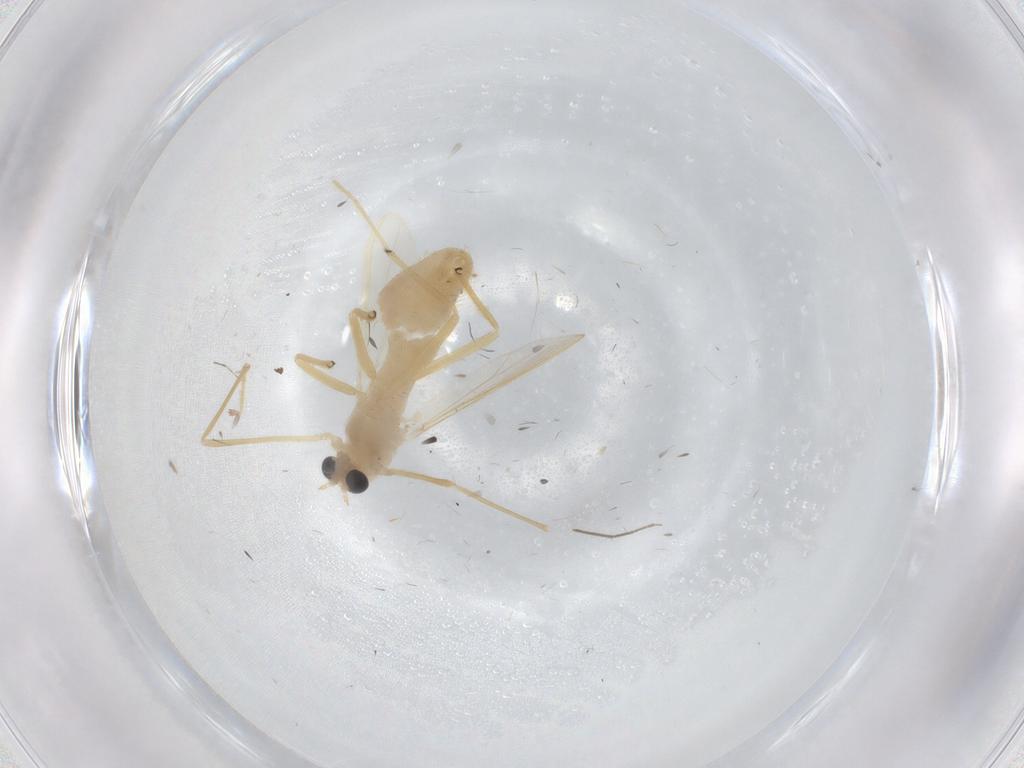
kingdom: Animalia
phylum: Arthropoda
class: Insecta
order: Diptera
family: Chironomidae
